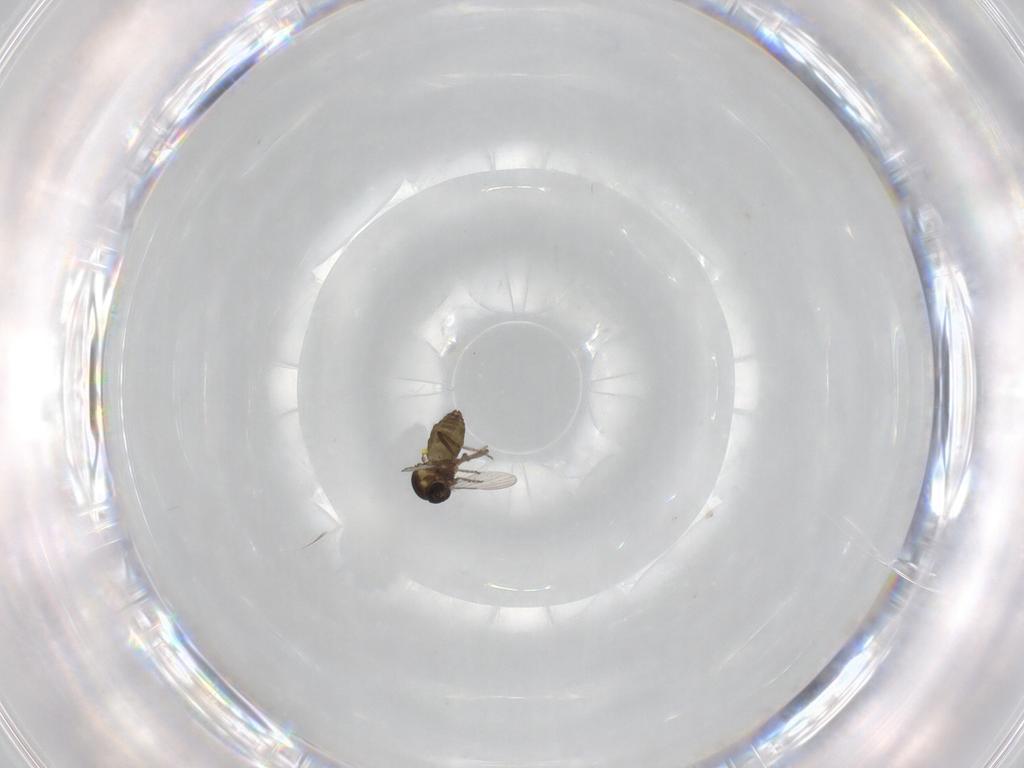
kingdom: Animalia
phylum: Arthropoda
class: Insecta
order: Diptera
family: Ceratopogonidae
